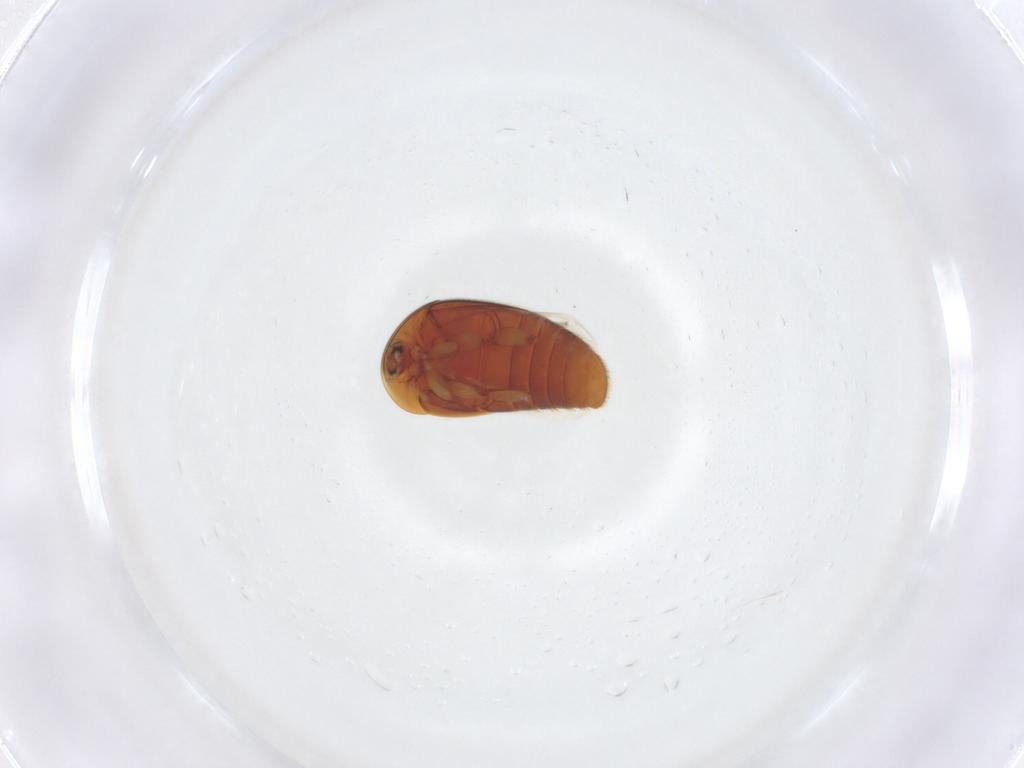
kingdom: Animalia
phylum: Arthropoda
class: Insecta
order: Coleoptera
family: Corylophidae
